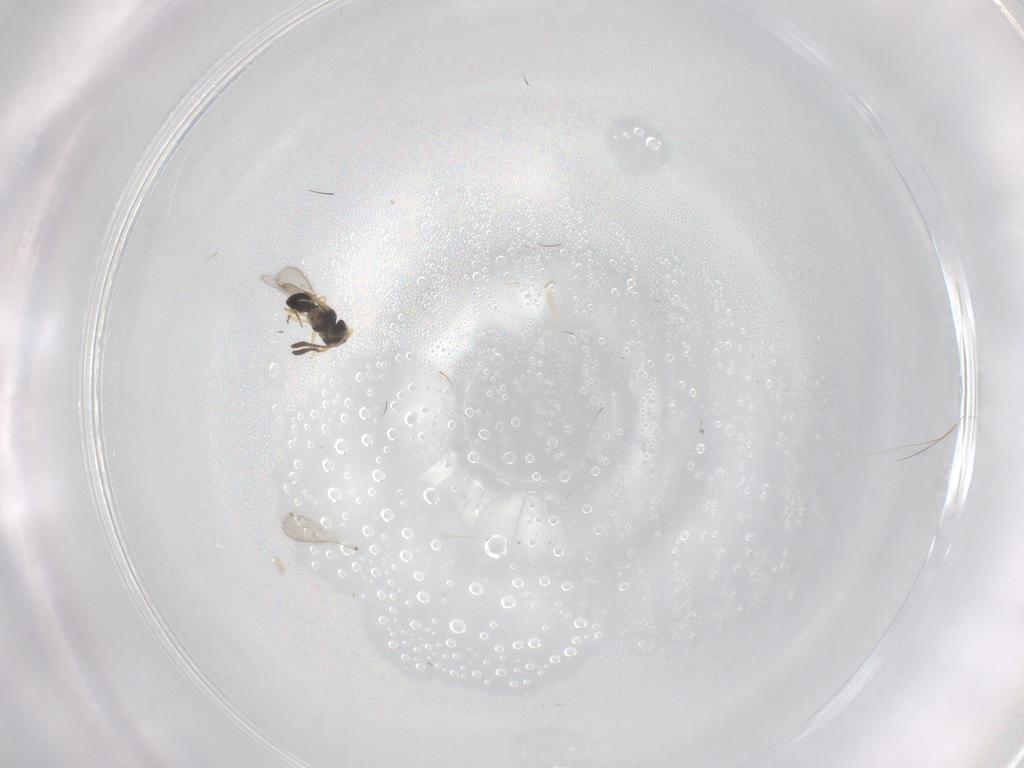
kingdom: Animalia
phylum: Arthropoda
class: Insecta
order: Hymenoptera
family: Scelionidae
